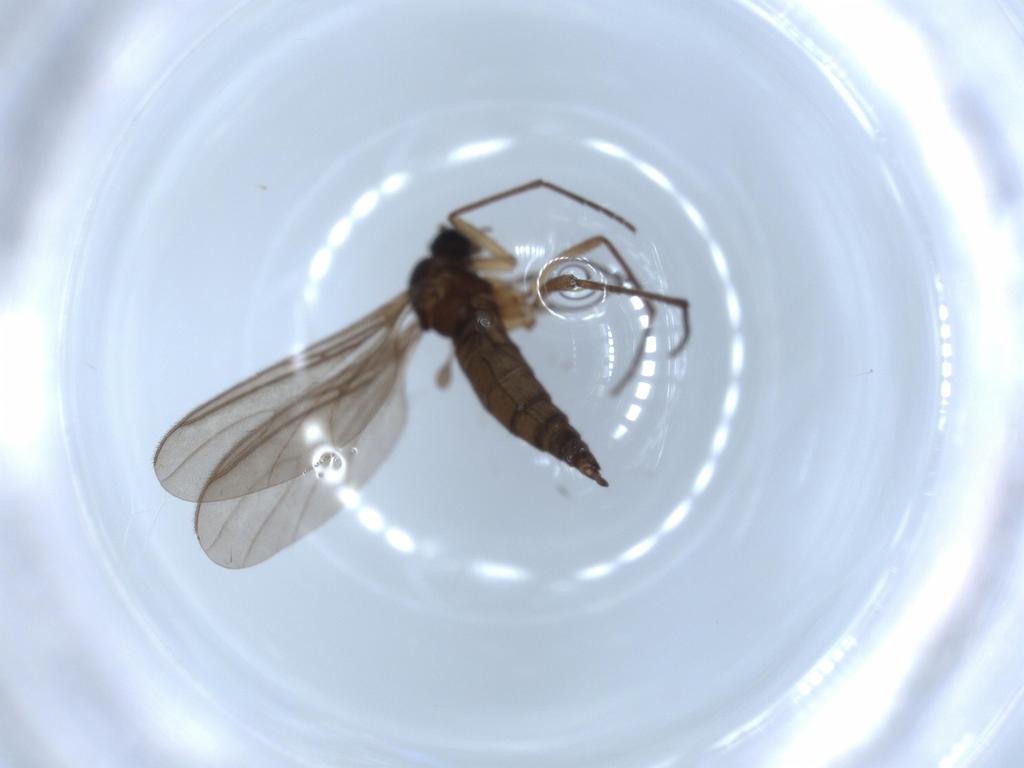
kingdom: Animalia
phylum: Arthropoda
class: Insecta
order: Diptera
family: Sciaridae
